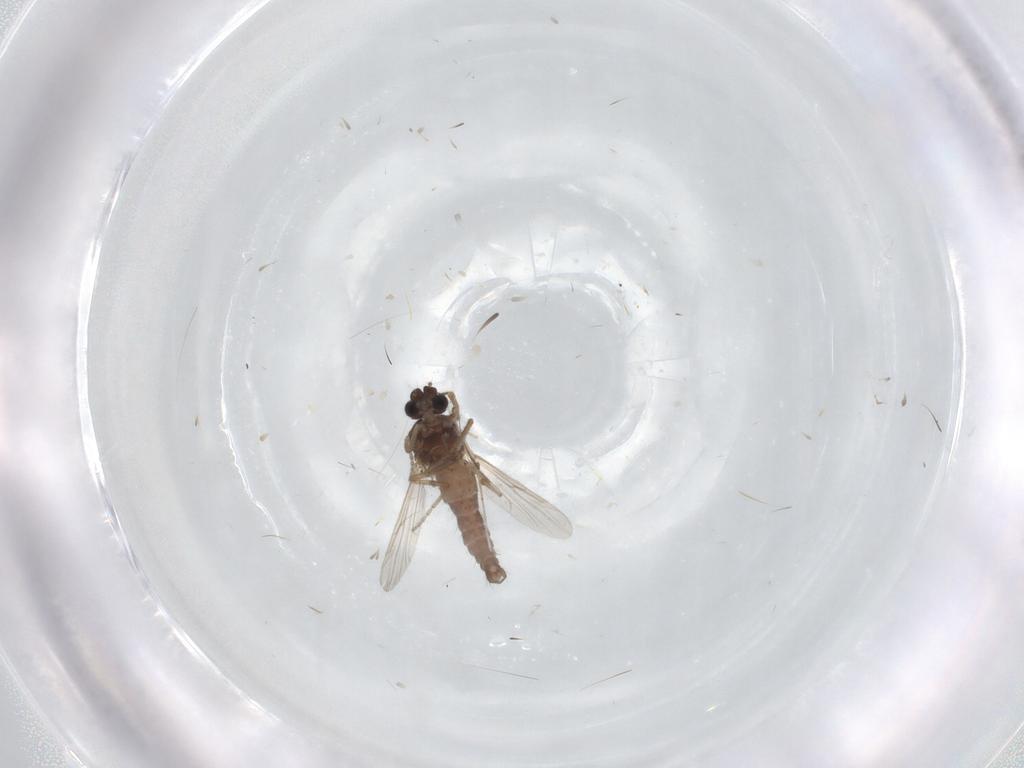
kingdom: Animalia
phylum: Arthropoda
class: Insecta
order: Diptera
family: Ceratopogonidae
